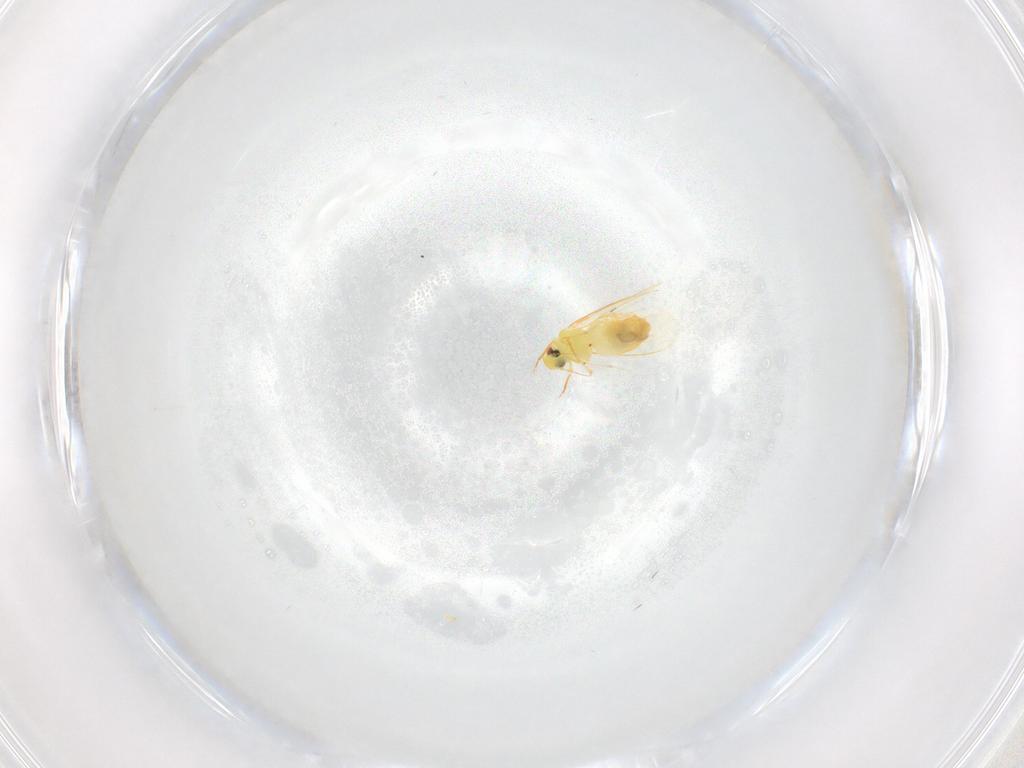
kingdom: Animalia
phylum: Arthropoda
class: Insecta
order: Hemiptera
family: Aleyrodidae
